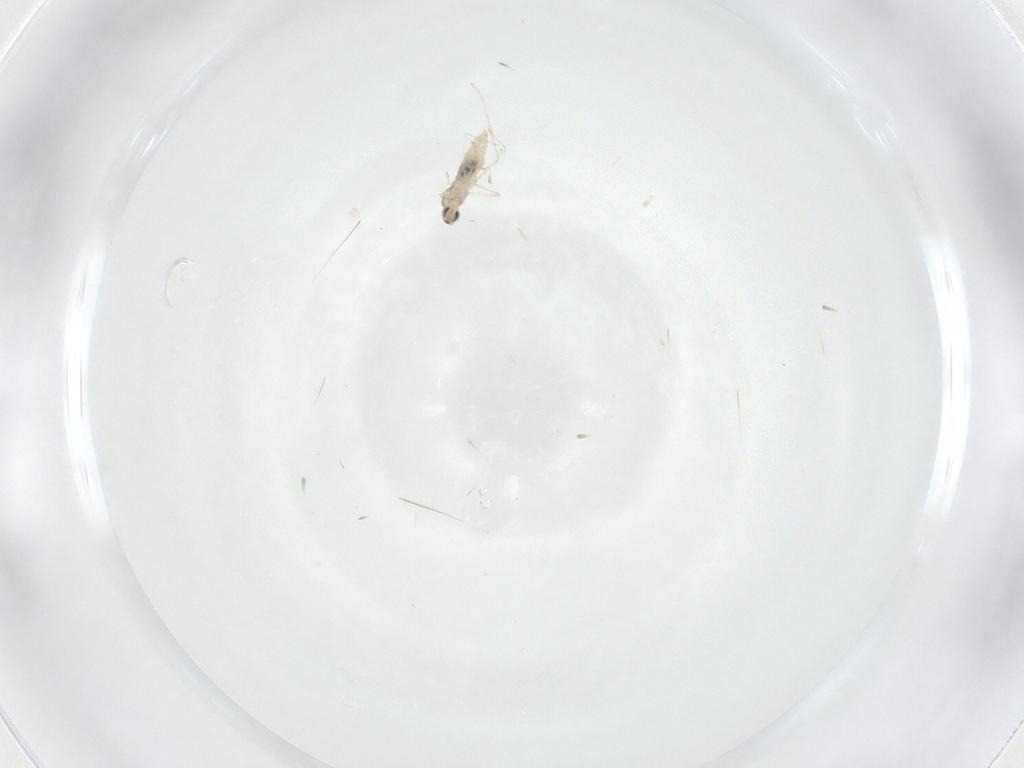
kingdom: Animalia
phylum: Arthropoda
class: Insecta
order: Diptera
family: Cecidomyiidae
